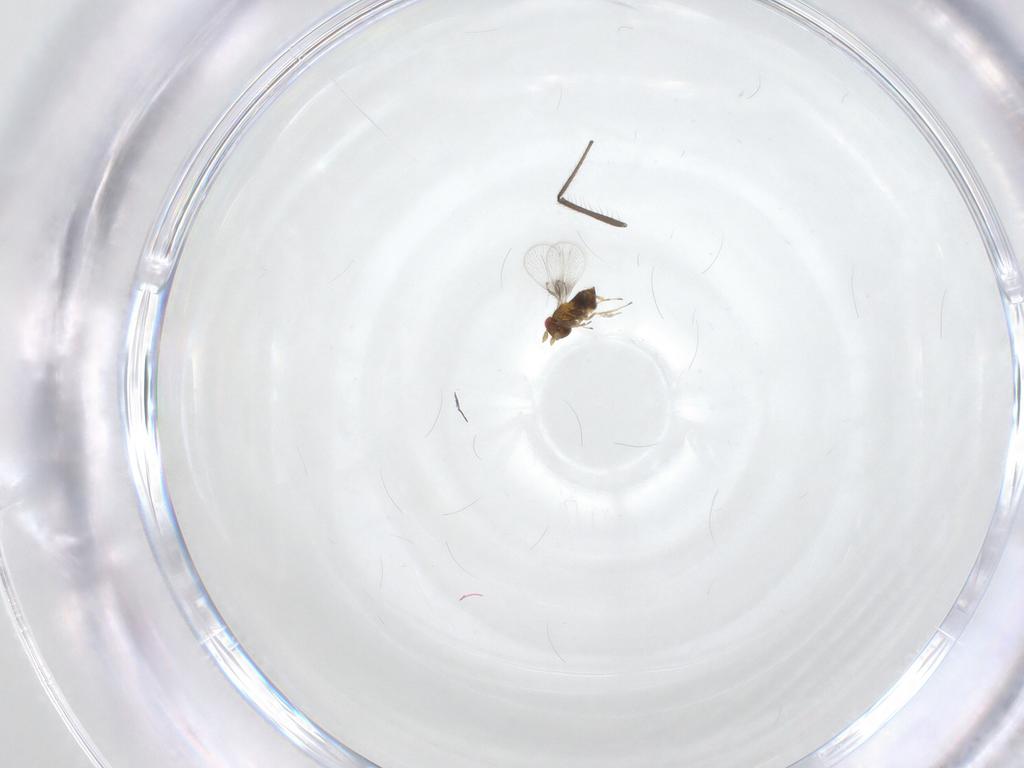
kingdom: Animalia
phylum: Arthropoda
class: Insecta
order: Hymenoptera
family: Trichogrammatidae
